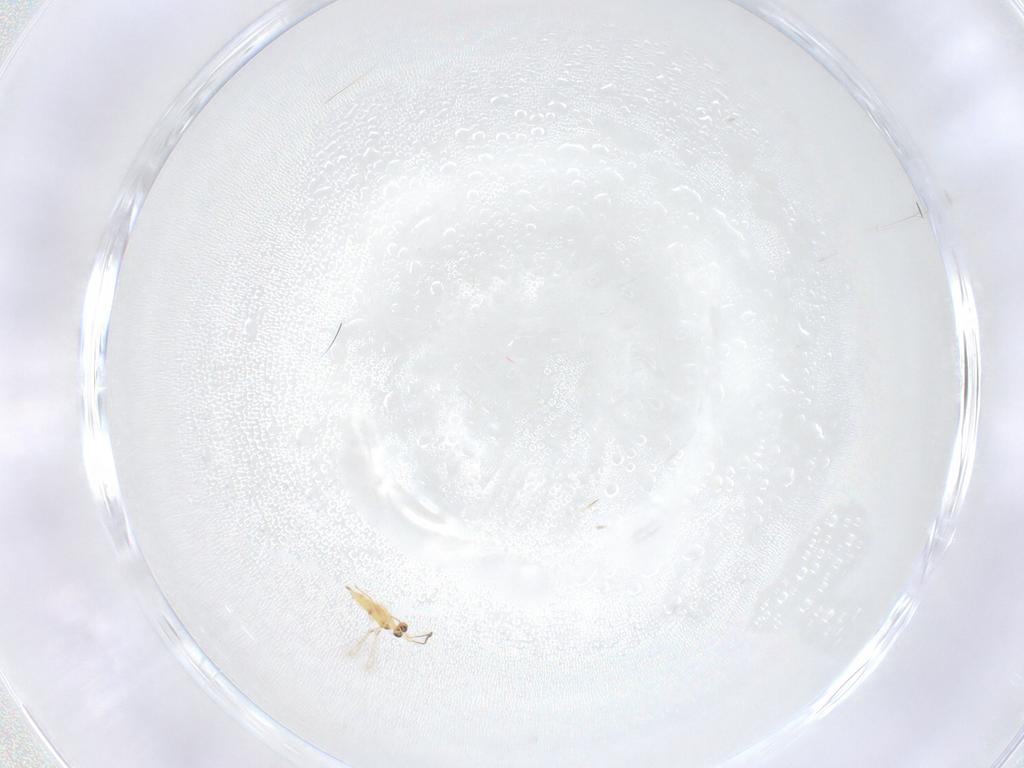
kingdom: Animalia
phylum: Arthropoda
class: Insecta
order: Hymenoptera
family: Mymaridae
